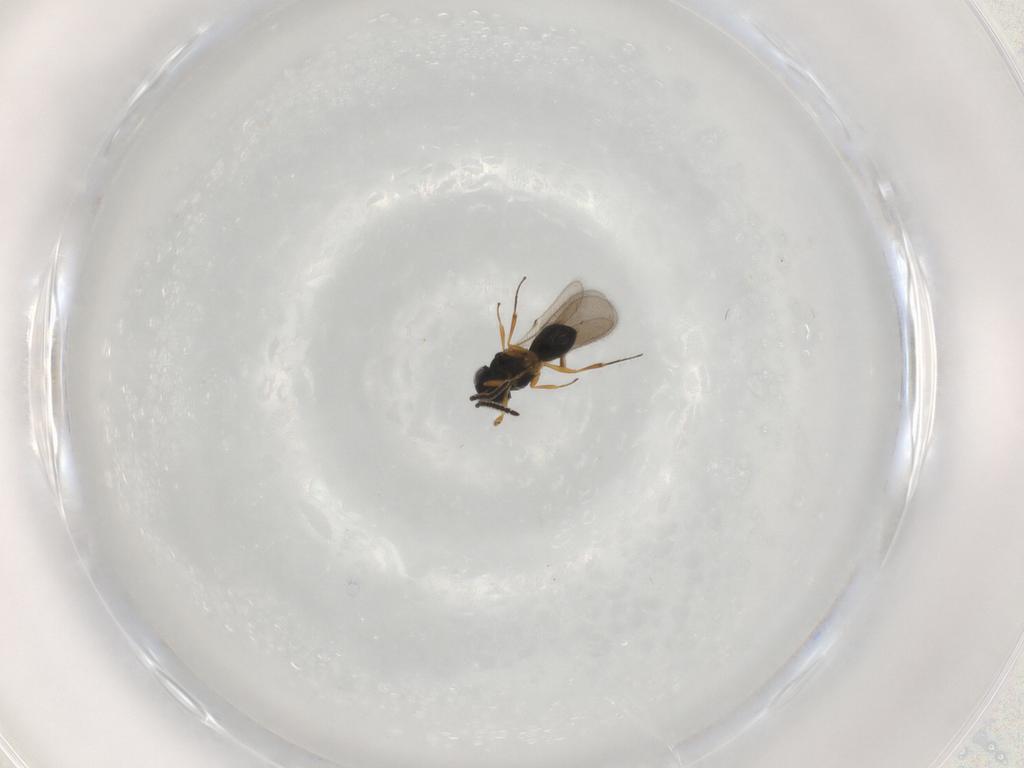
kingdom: Animalia
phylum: Arthropoda
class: Insecta
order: Hymenoptera
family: Scelionidae
